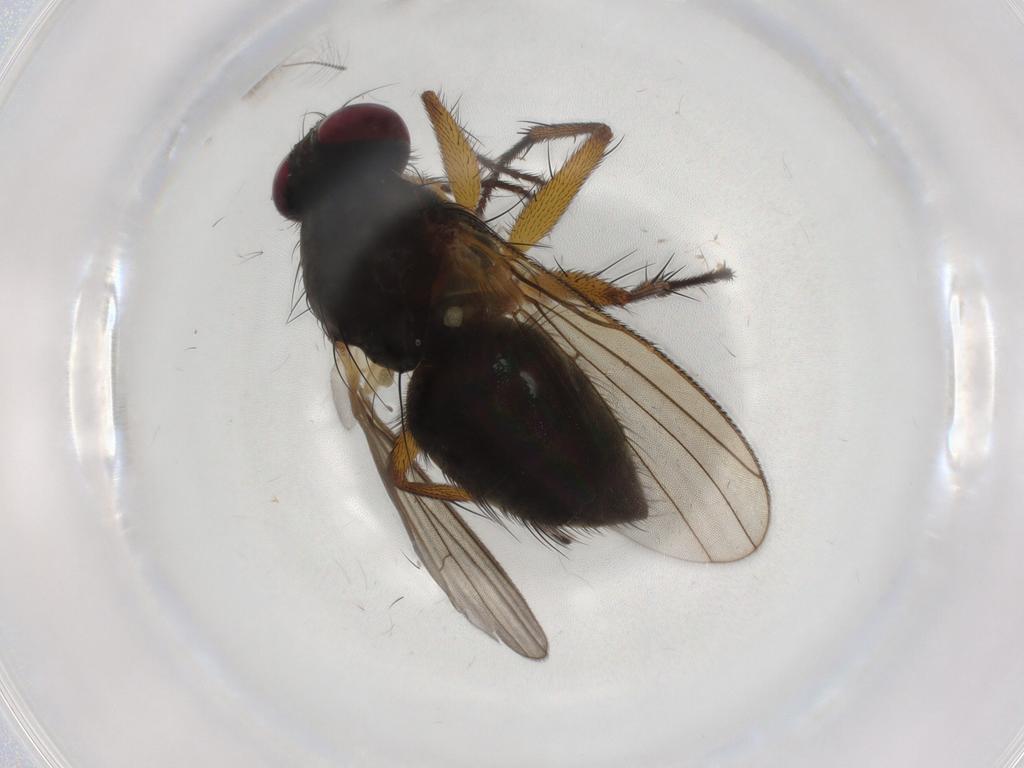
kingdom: Animalia
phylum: Arthropoda
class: Insecta
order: Diptera
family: Muscidae
